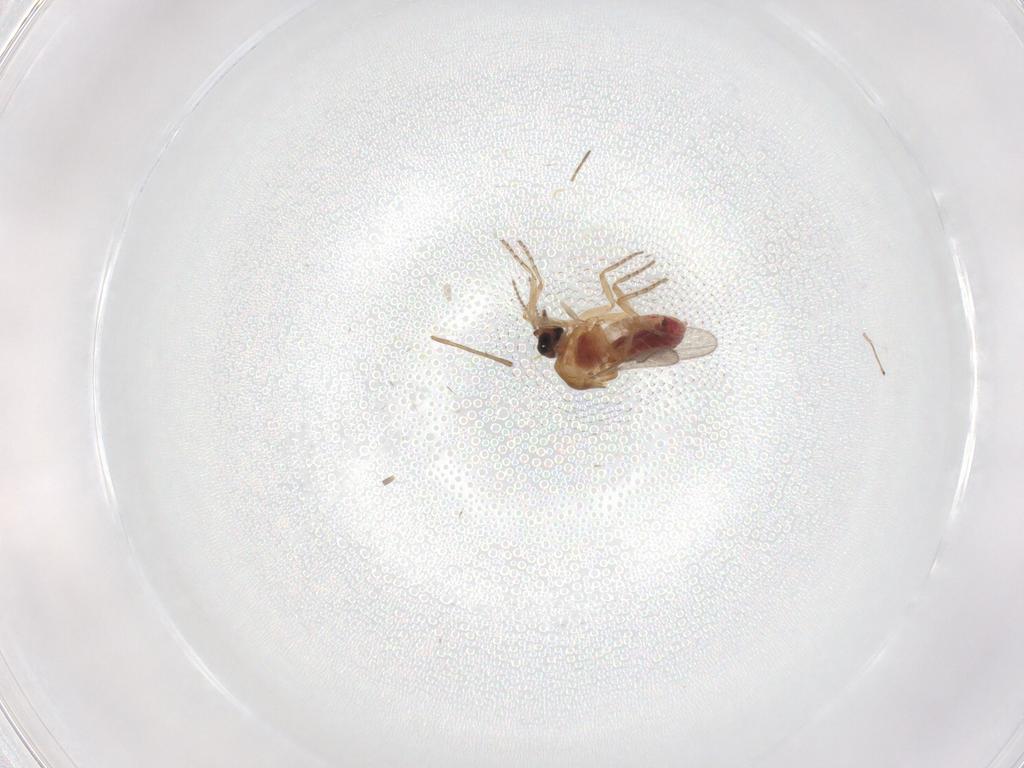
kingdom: Animalia
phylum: Arthropoda
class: Insecta
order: Diptera
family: Ceratopogonidae
